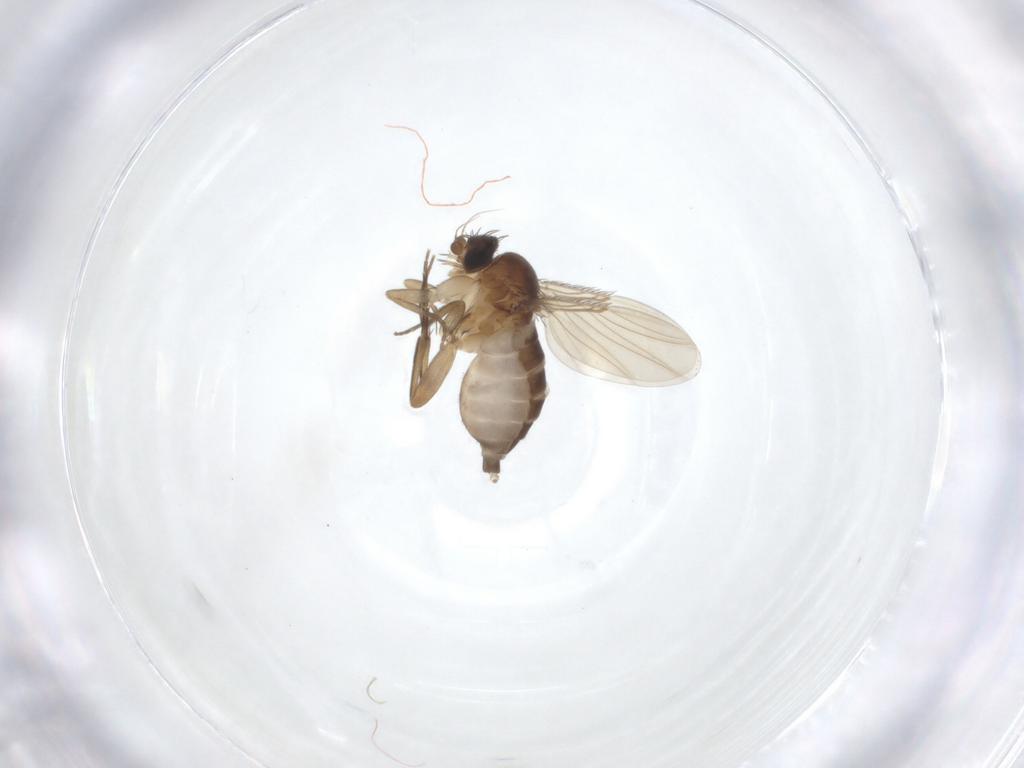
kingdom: Animalia
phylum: Arthropoda
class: Insecta
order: Diptera
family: Phoridae
